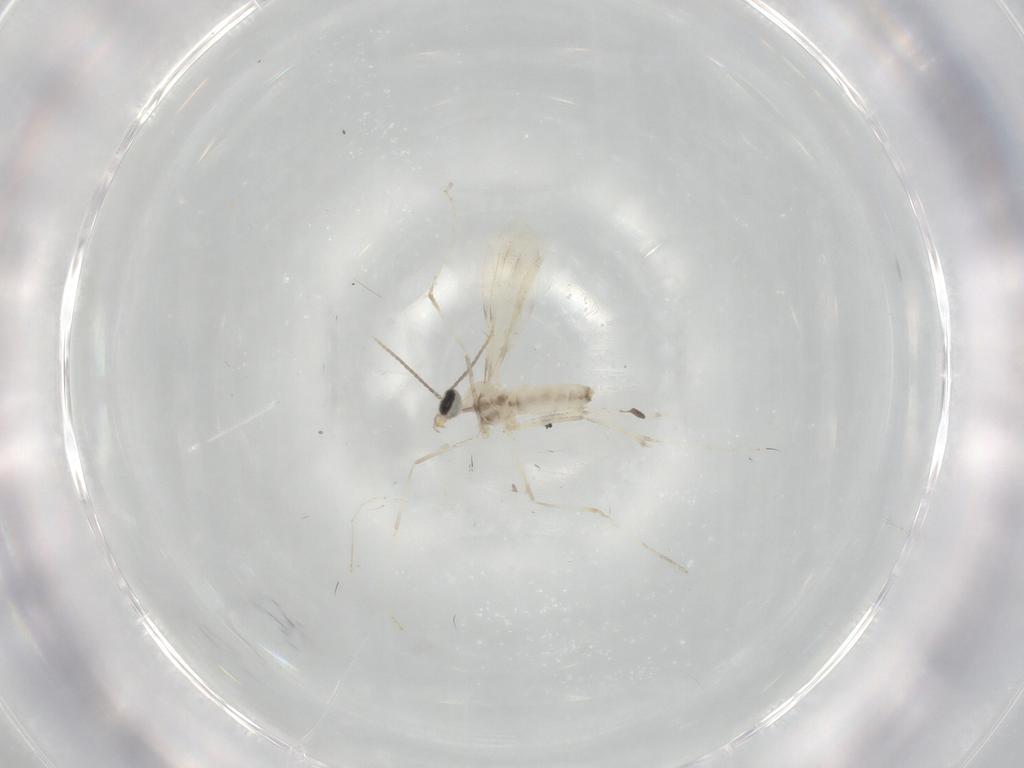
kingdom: Animalia
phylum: Arthropoda
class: Insecta
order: Diptera
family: Cecidomyiidae
